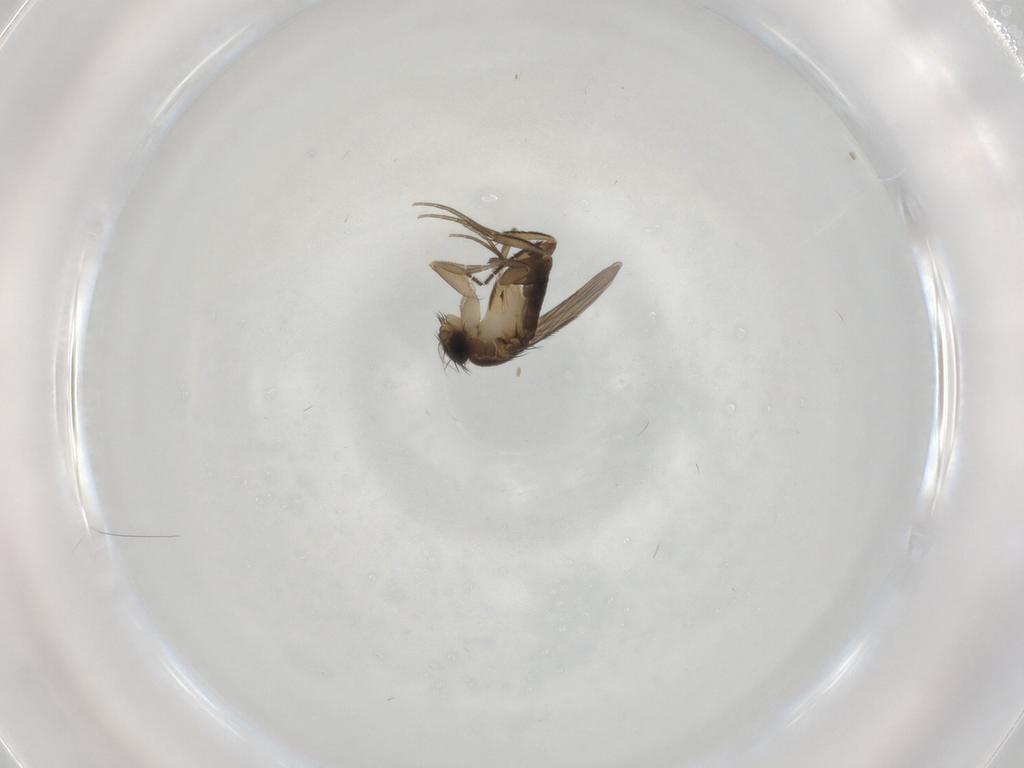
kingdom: Animalia
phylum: Arthropoda
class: Insecta
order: Diptera
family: Phoridae
